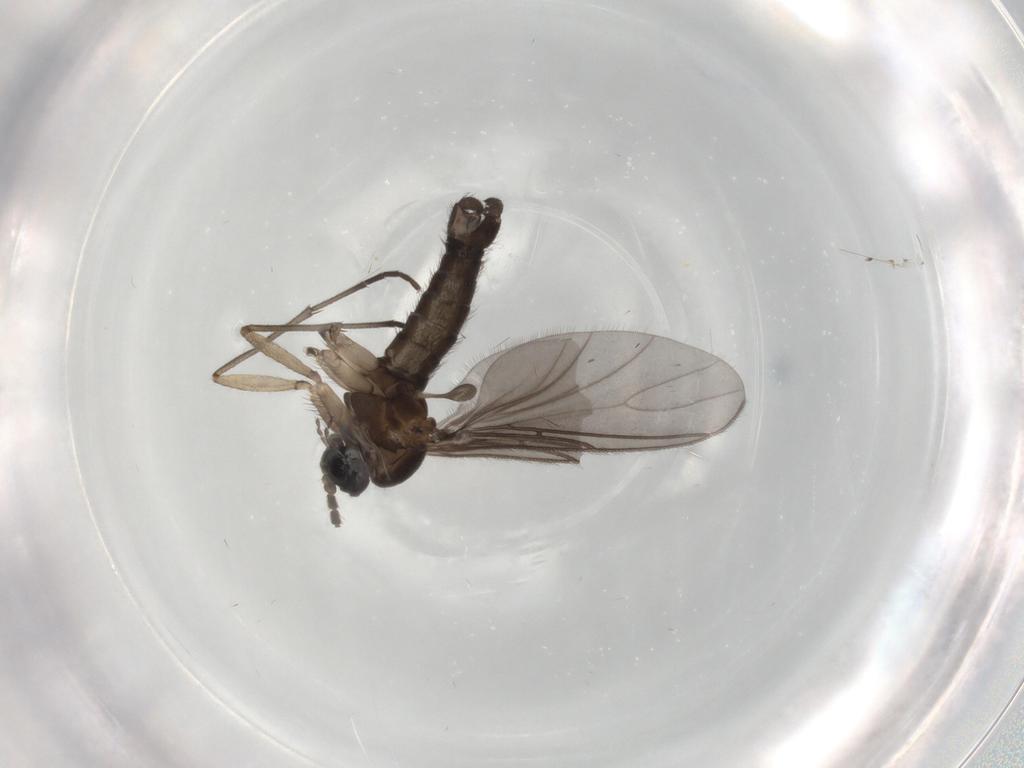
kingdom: Animalia
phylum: Arthropoda
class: Insecta
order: Diptera
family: Sciaridae
